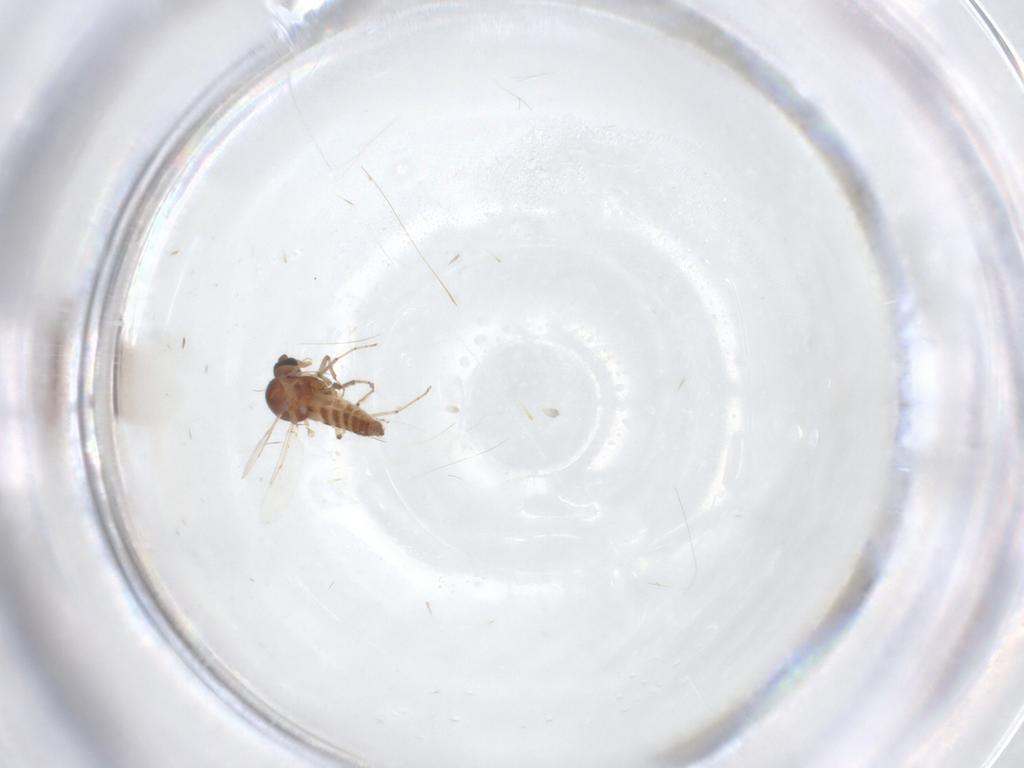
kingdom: Animalia
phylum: Arthropoda
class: Insecta
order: Diptera
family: Ceratopogonidae
